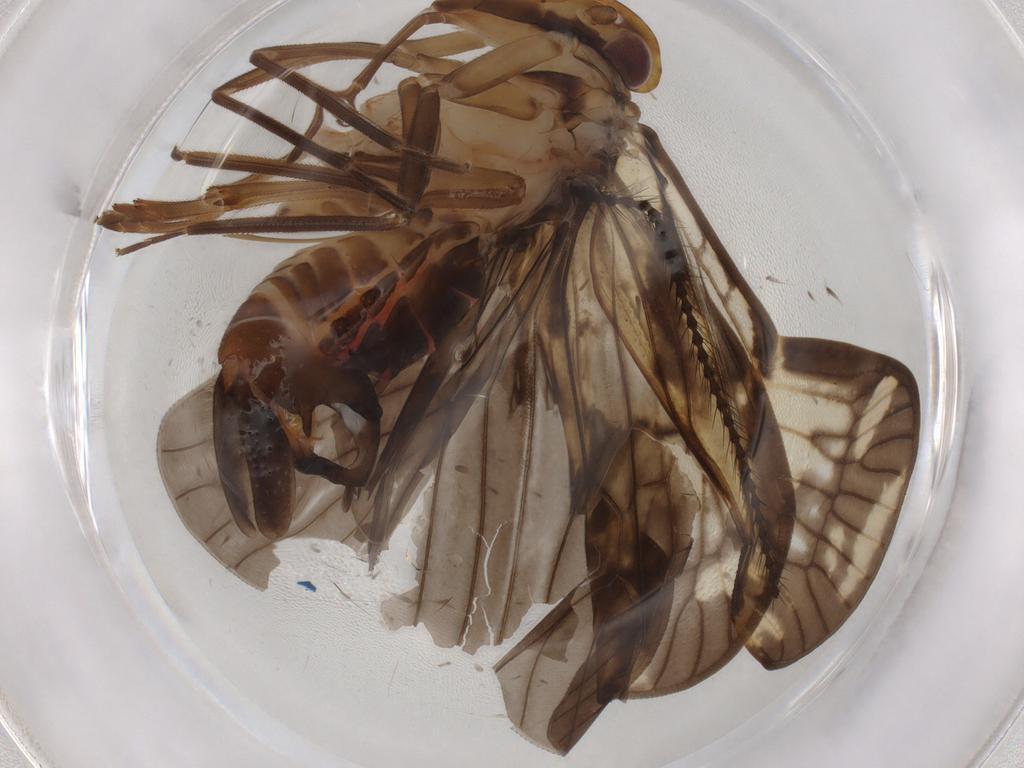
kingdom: Animalia
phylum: Arthropoda
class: Insecta
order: Hemiptera
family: Cixiidae
